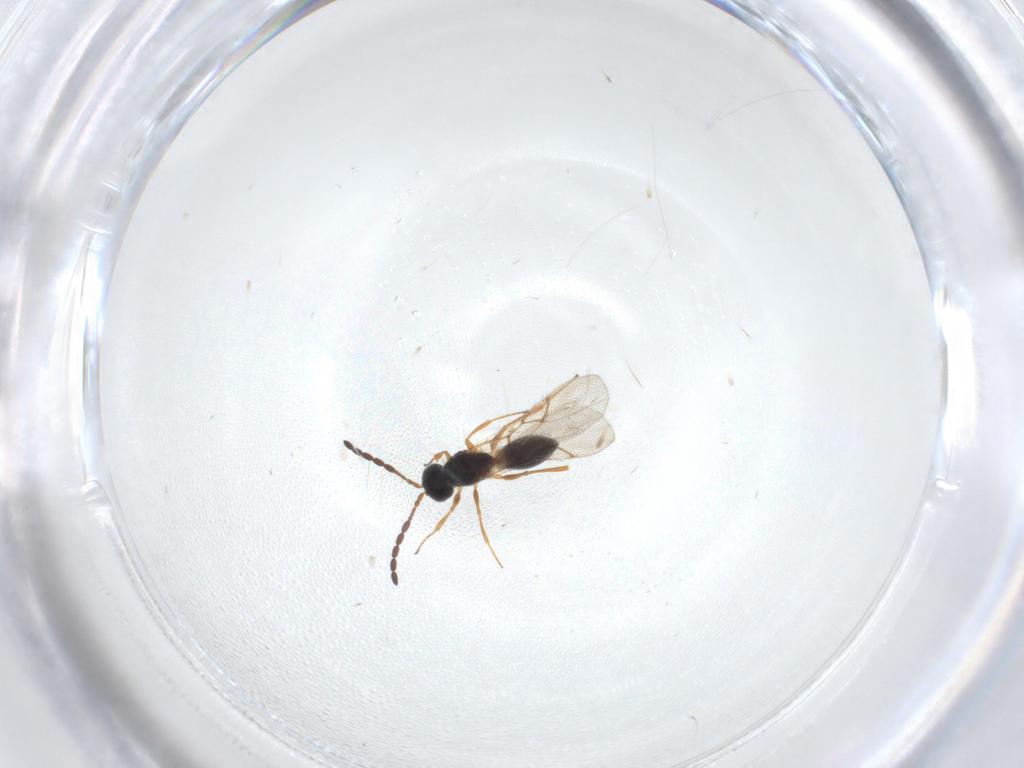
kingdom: Animalia
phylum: Arthropoda
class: Insecta
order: Hymenoptera
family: Figitidae
